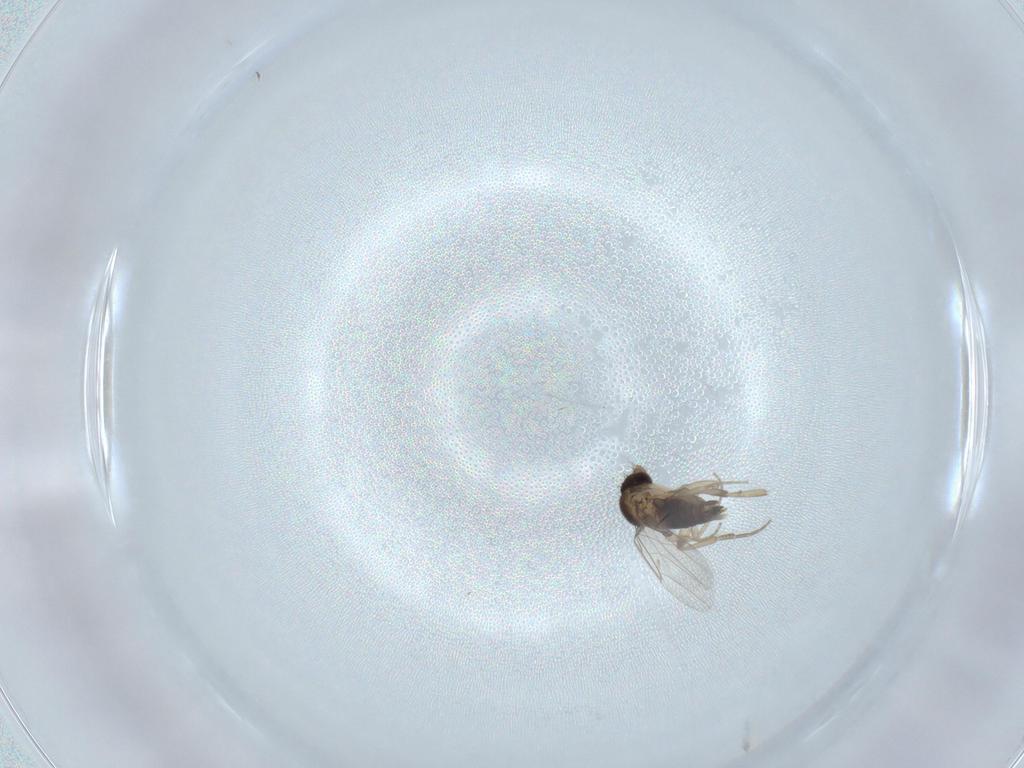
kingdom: Animalia
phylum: Arthropoda
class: Insecta
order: Diptera
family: Phoridae
